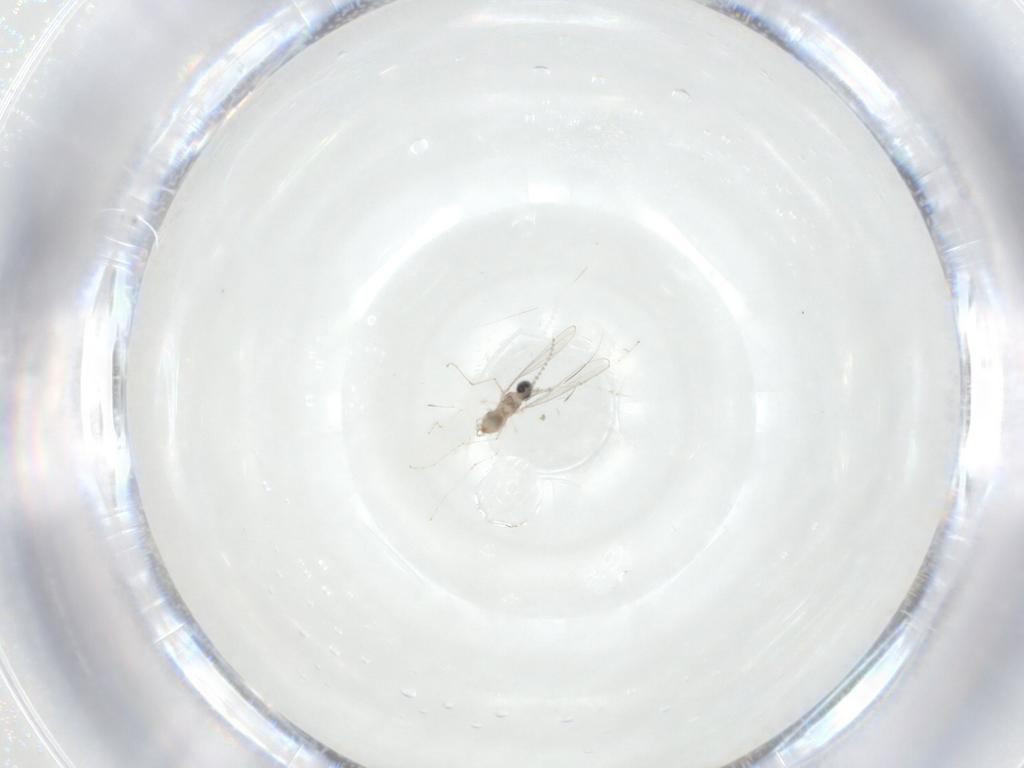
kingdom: Animalia
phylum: Arthropoda
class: Insecta
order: Diptera
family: Cecidomyiidae
